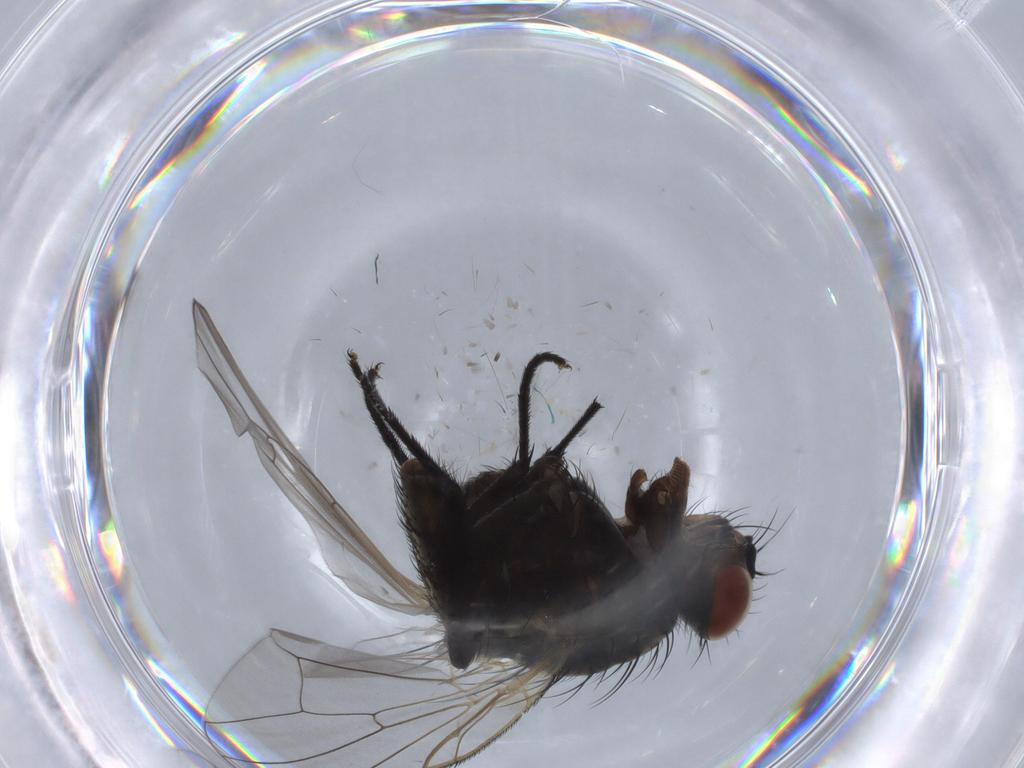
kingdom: Animalia
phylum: Arthropoda
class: Insecta
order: Diptera
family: Anthomyiidae
